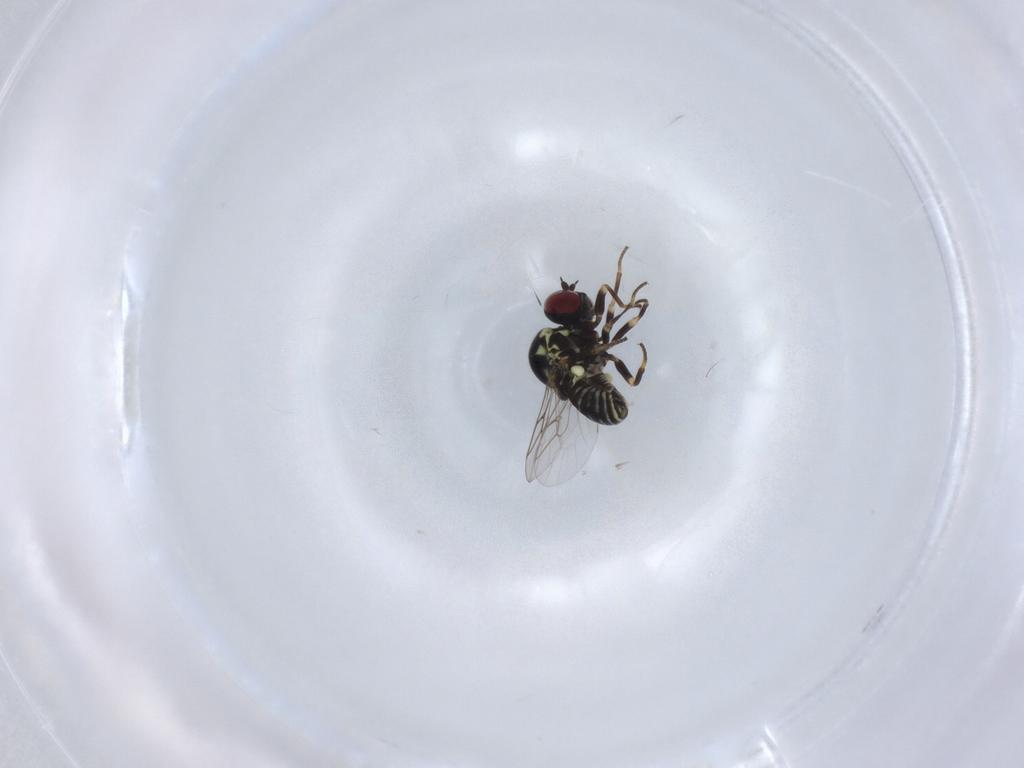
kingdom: Animalia
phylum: Arthropoda
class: Insecta
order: Diptera
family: Mythicomyiidae
